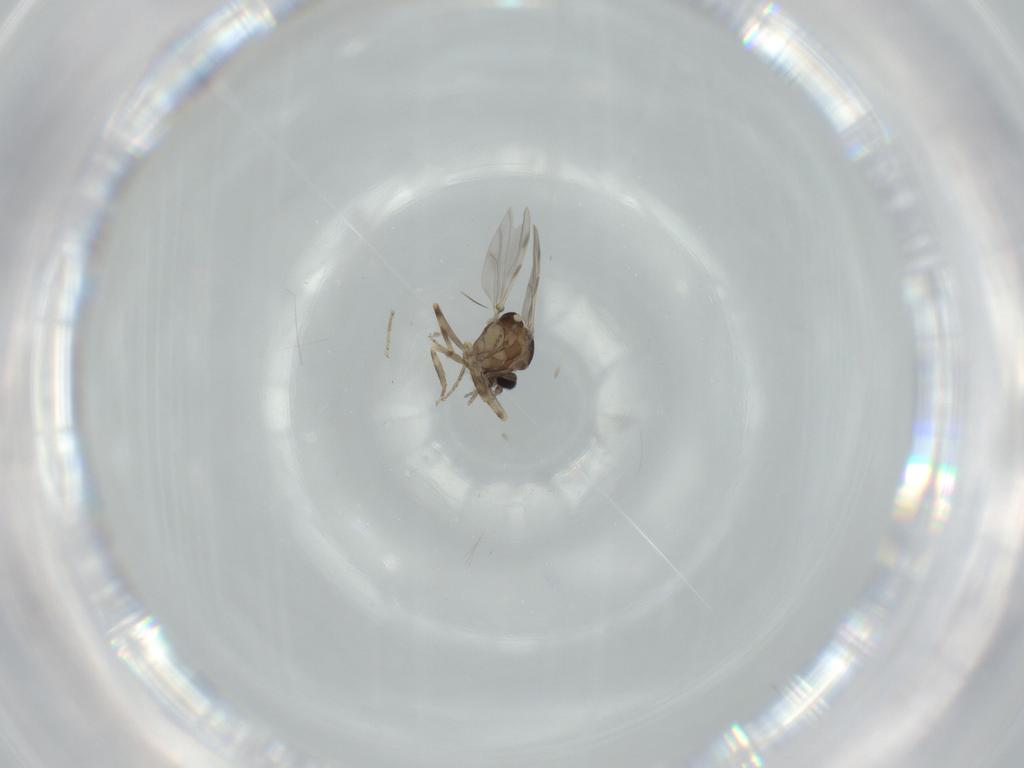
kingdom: Animalia
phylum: Arthropoda
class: Insecta
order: Diptera
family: Ceratopogonidae
